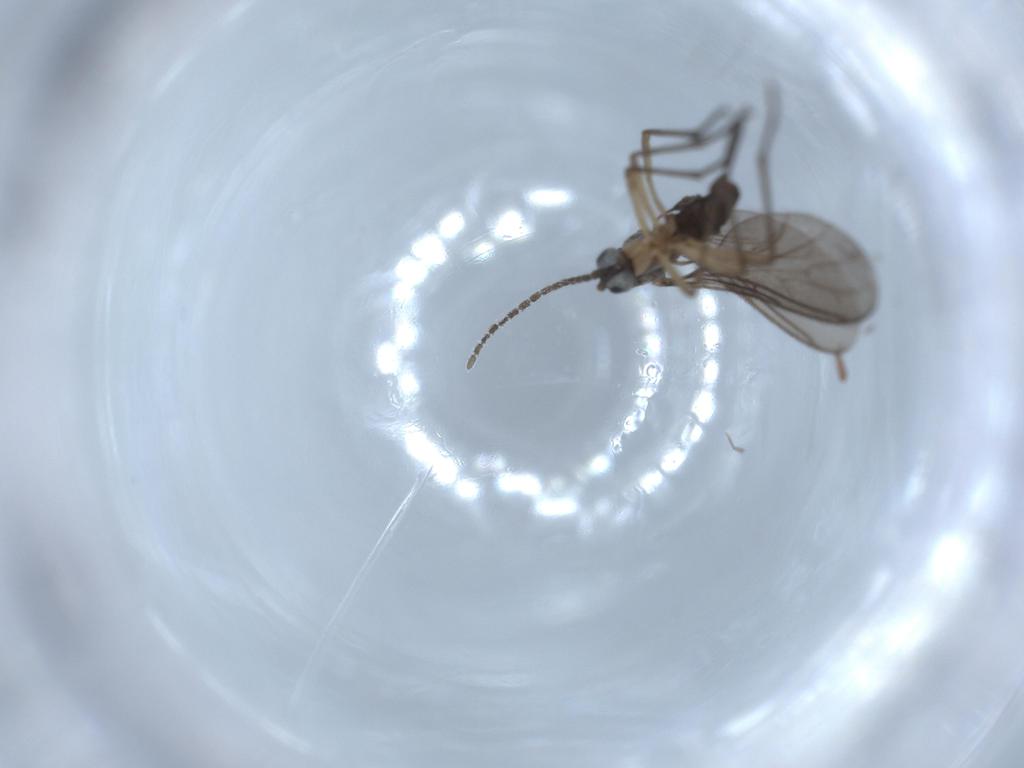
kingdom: Animalia
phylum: Arthropoda
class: Insecta
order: Diptera
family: Sciaridae
